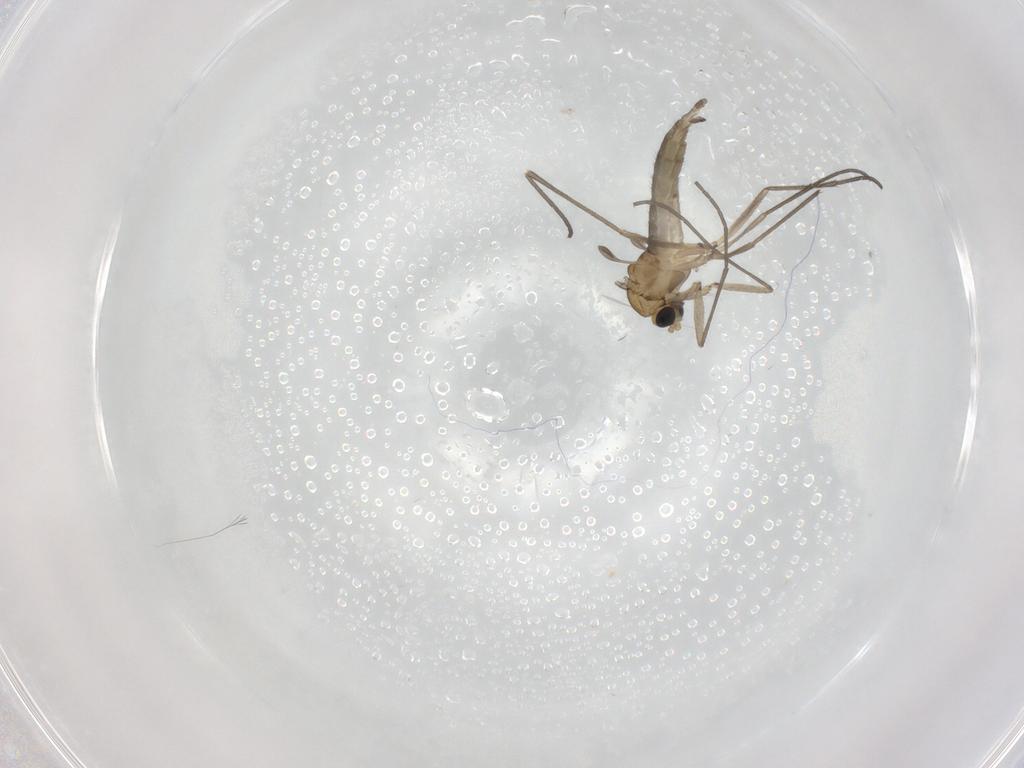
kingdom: Animalia
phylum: Arthropoda
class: Insecta
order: Diptera
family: Sciaridae
